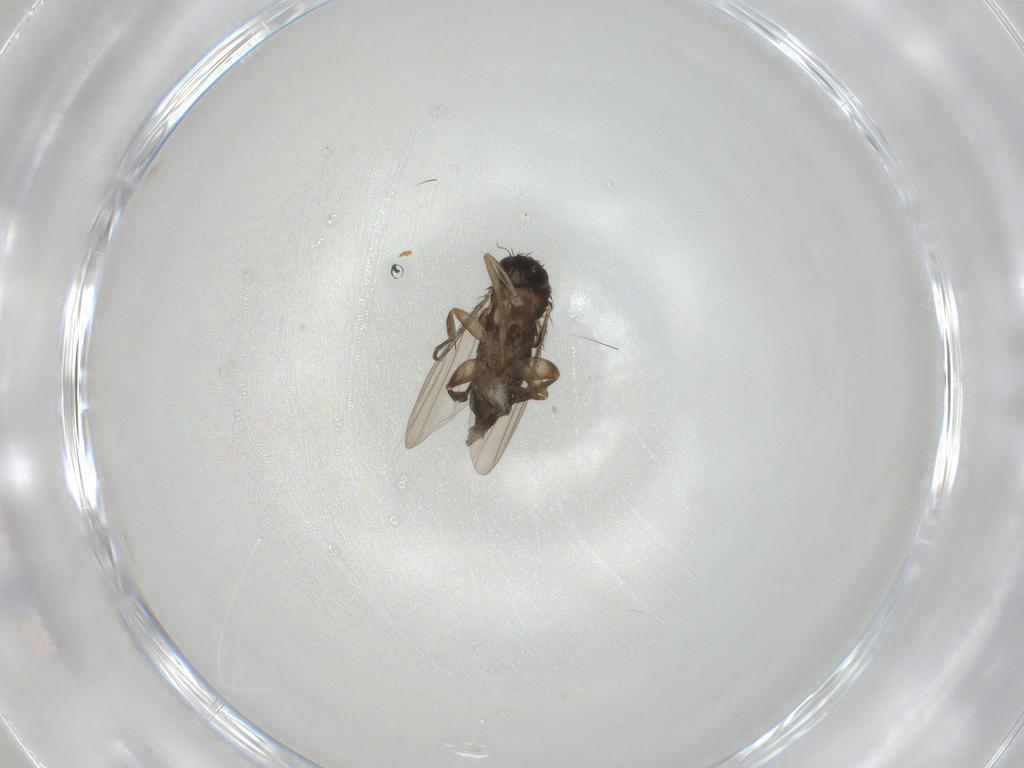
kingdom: Animalia
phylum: Arthropoda
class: Insecta
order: Diptera
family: Phoridae
